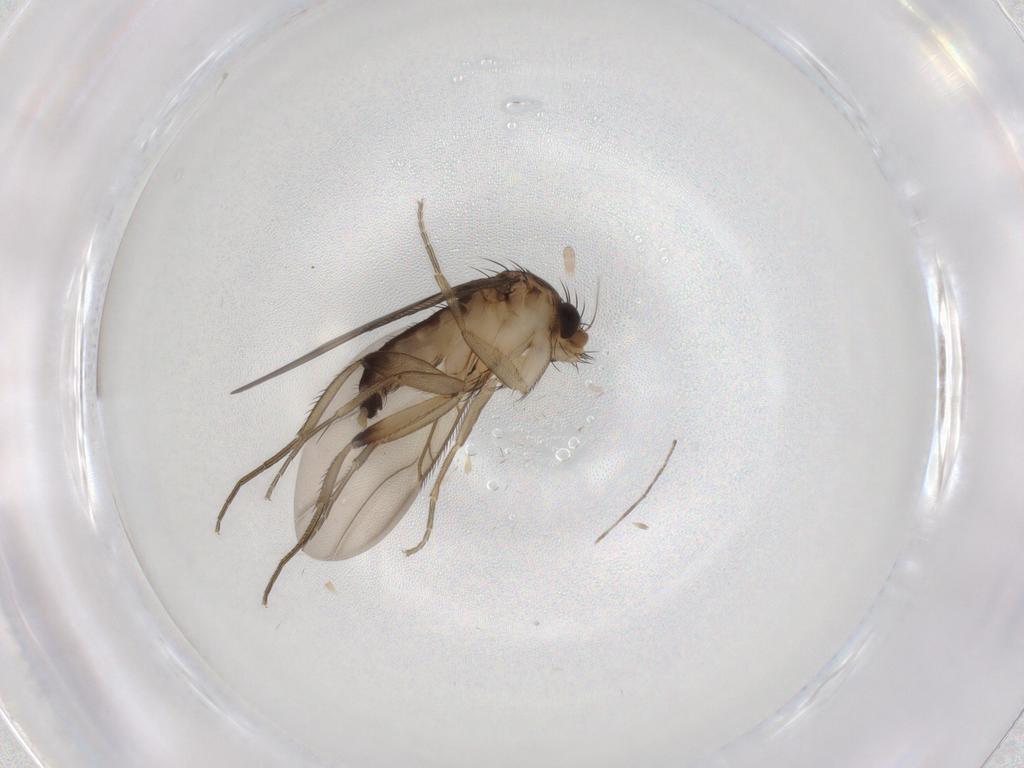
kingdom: Animalia
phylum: Arthropoda
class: Insecta
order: Diptera
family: Phoridae
